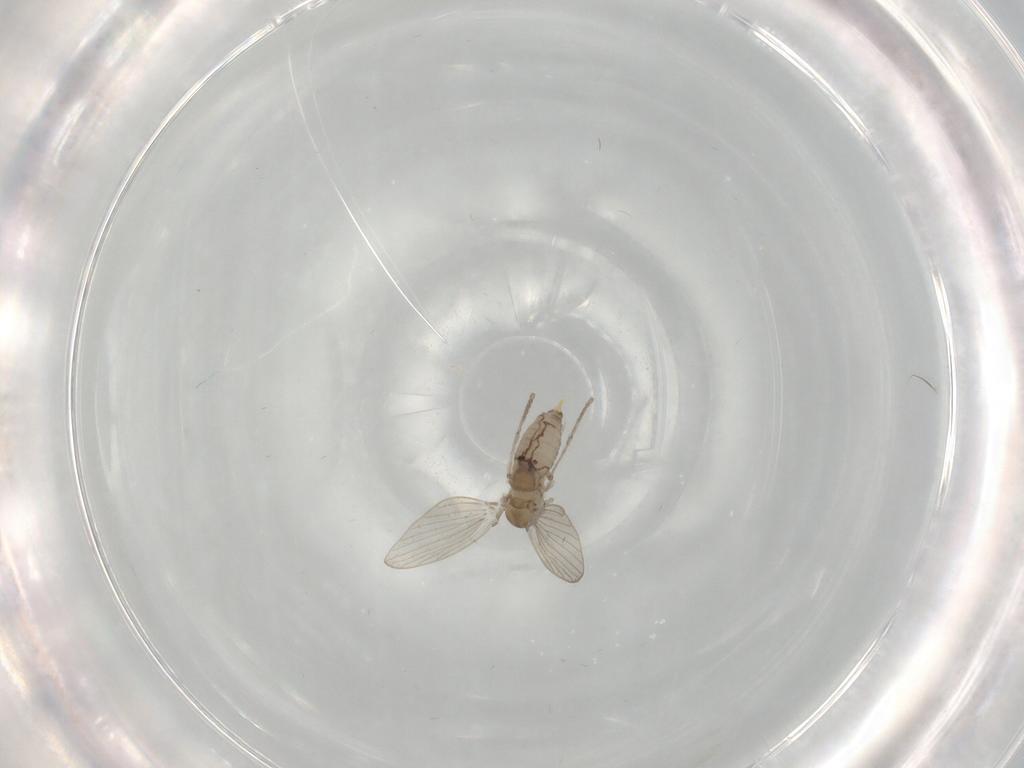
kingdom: Animalia
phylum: Arthropoda
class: Insecta
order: Diptera
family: Psychodidae
